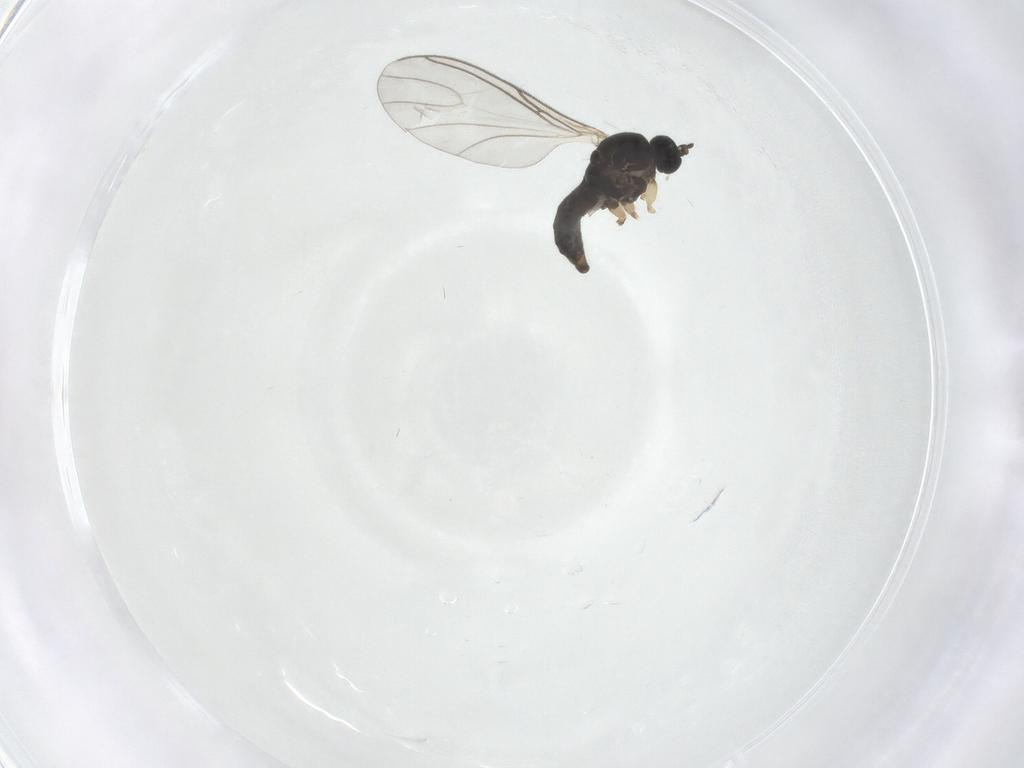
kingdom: Animalia
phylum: Arthropoda
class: Insecta
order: Diptera
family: Sciaridae
